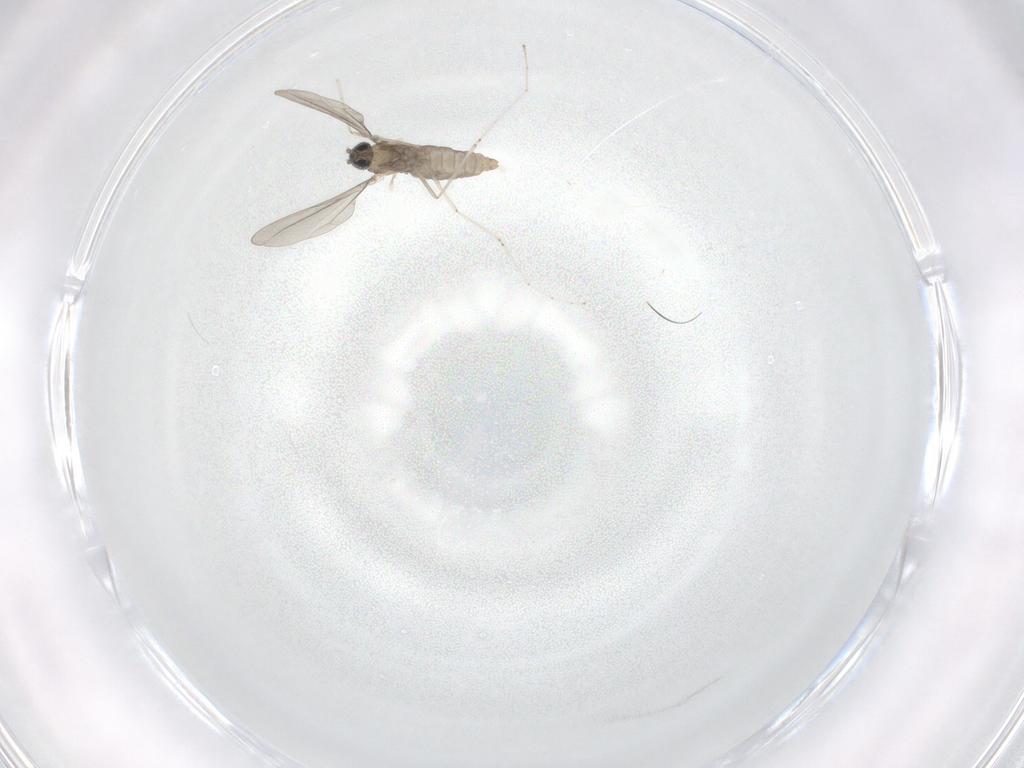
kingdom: Animalia
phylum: Arthropoda
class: Insecta
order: Diptera
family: Cecidomyiidae
